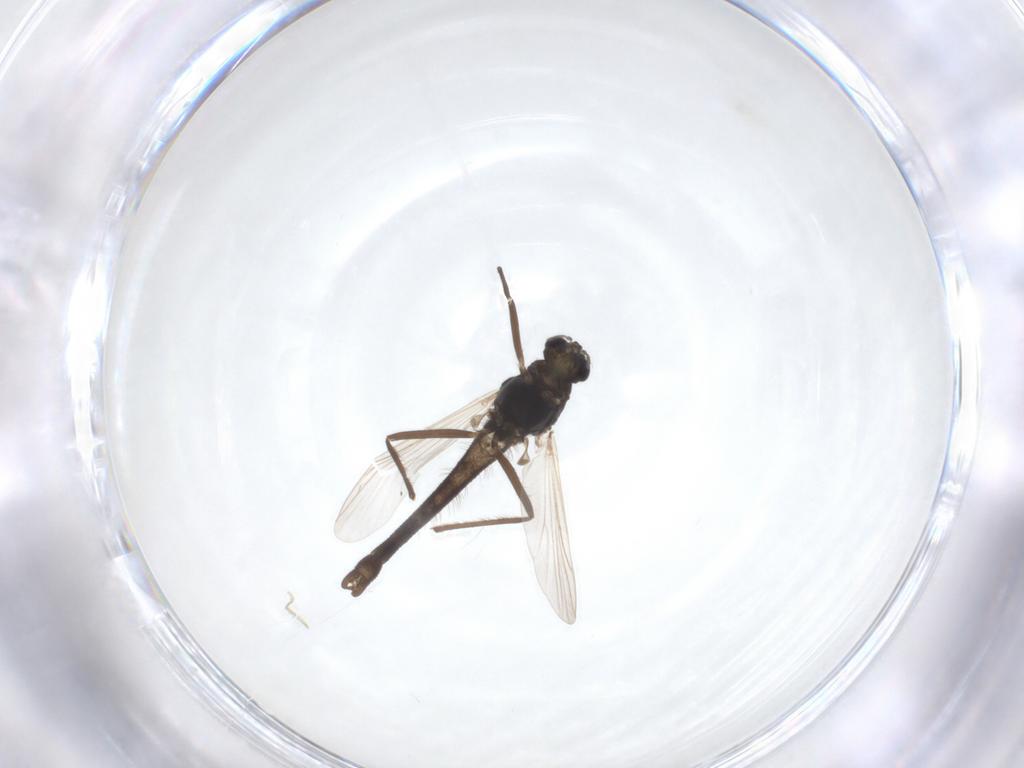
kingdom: Animalia
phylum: Arthropoda
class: Insecta
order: Diptera
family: Chironomidae
